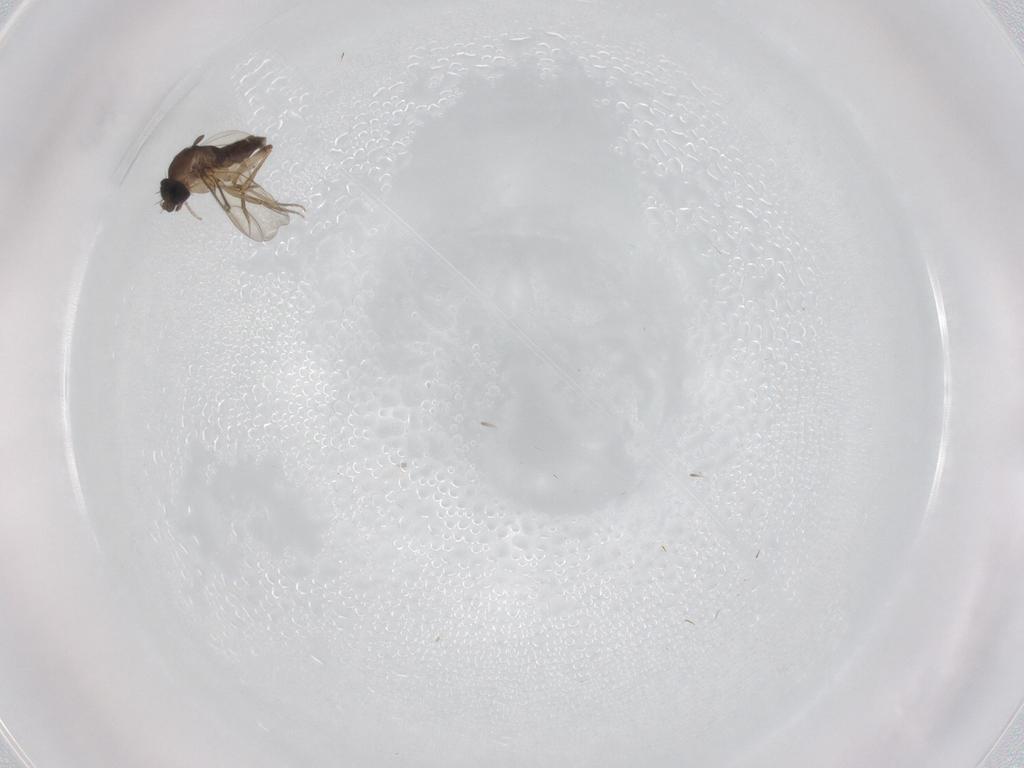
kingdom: Animalia
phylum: Arthropoda
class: Insecta
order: Diptera
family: Phoridae
